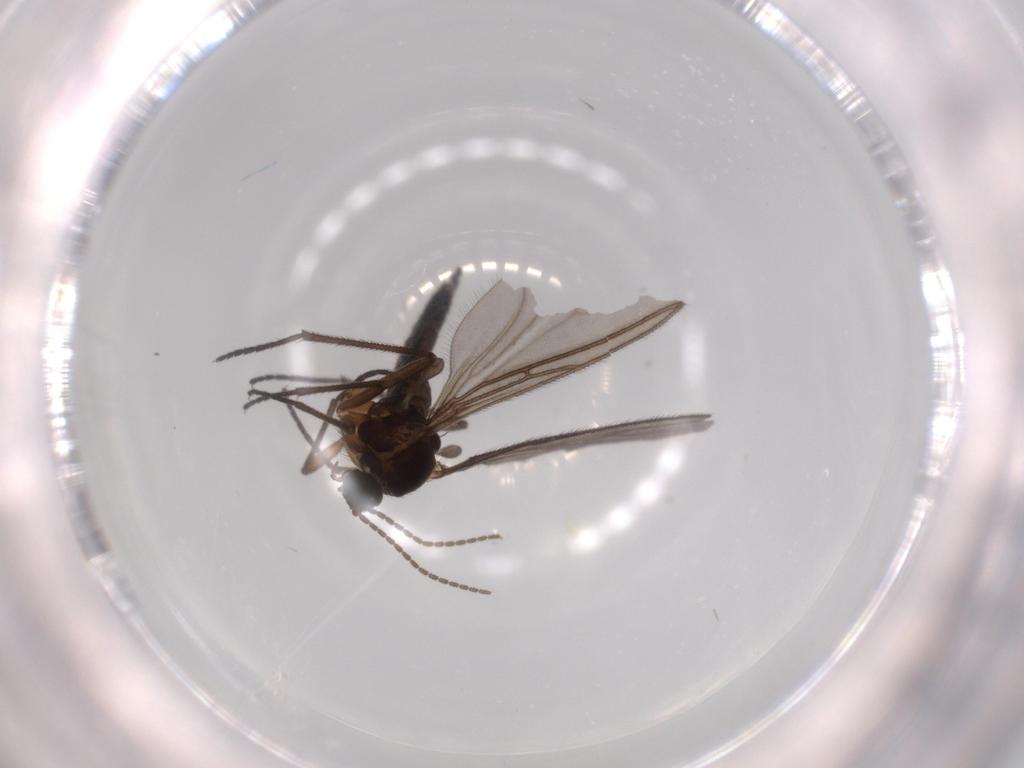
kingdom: Animalia
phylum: Arthropoda
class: Insecta
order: Diptera
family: Sciaridae
